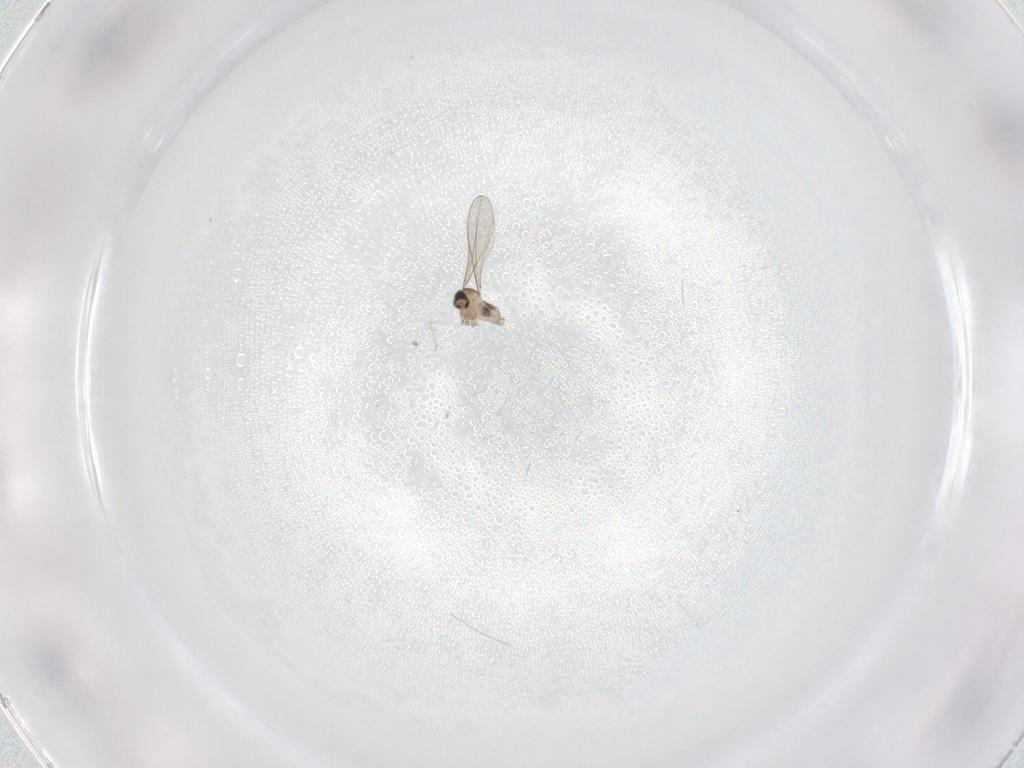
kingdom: Animalia
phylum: Arthropoda
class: Insecta
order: Diptera
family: Cecidomyiidae
